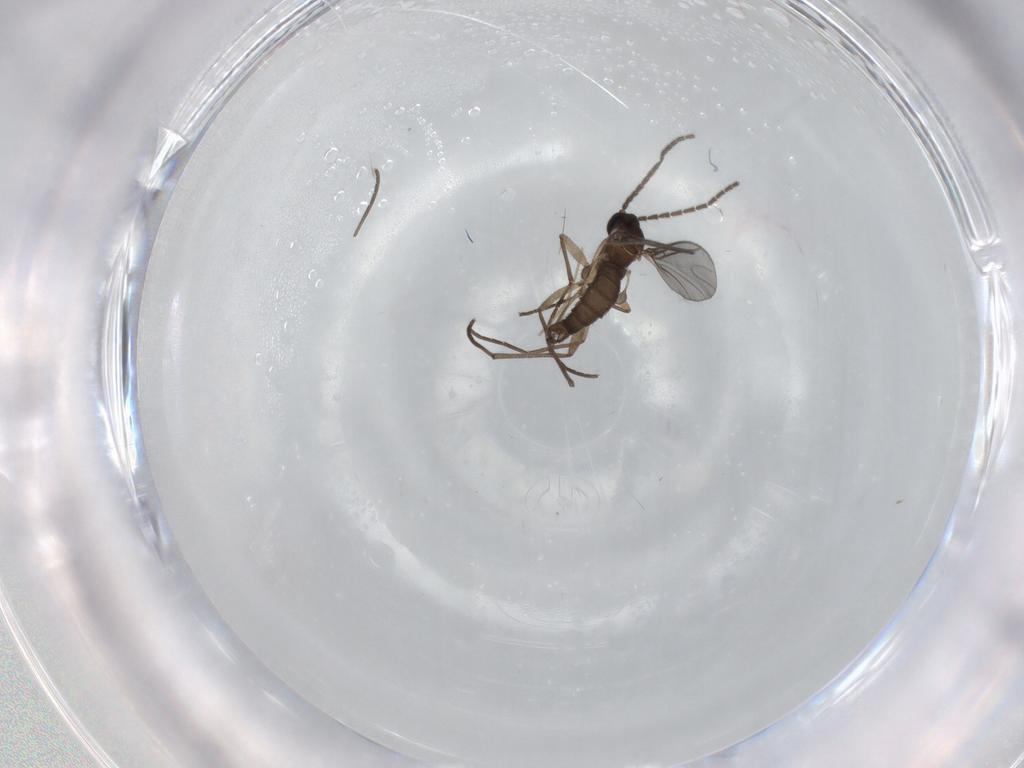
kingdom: Animalia
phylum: Arthropoda
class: Insecta
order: Diptera
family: Sciaridae
